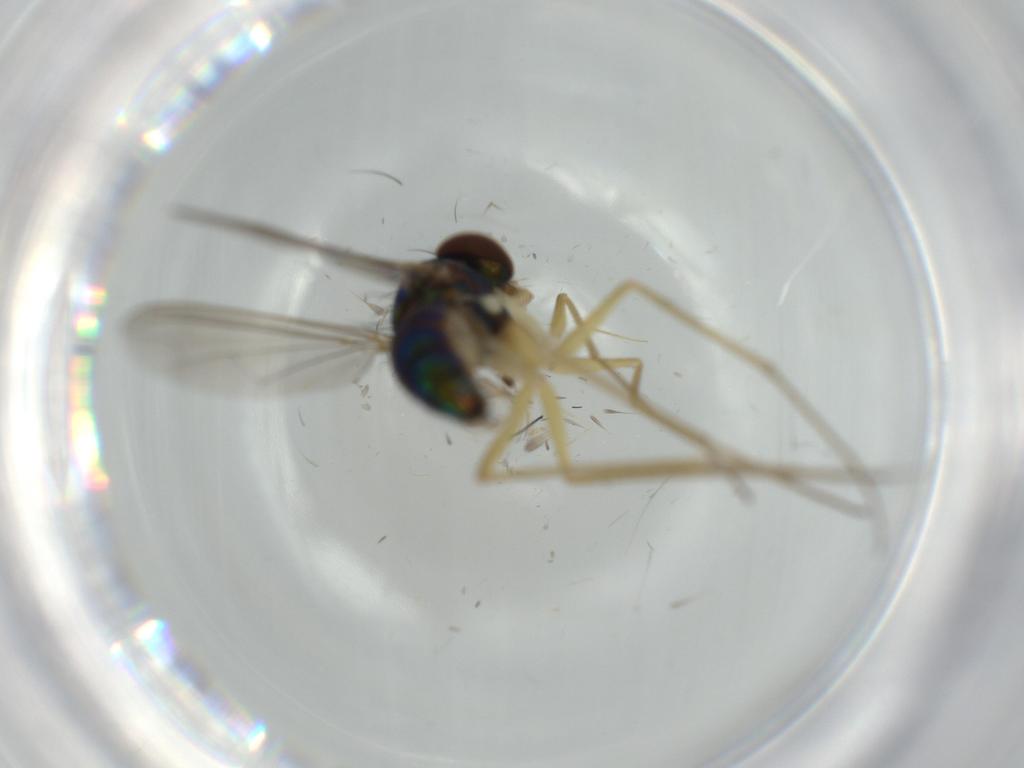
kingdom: Animalia
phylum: Arthropoda
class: Insecta
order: Diptera
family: Dolichopodidae
